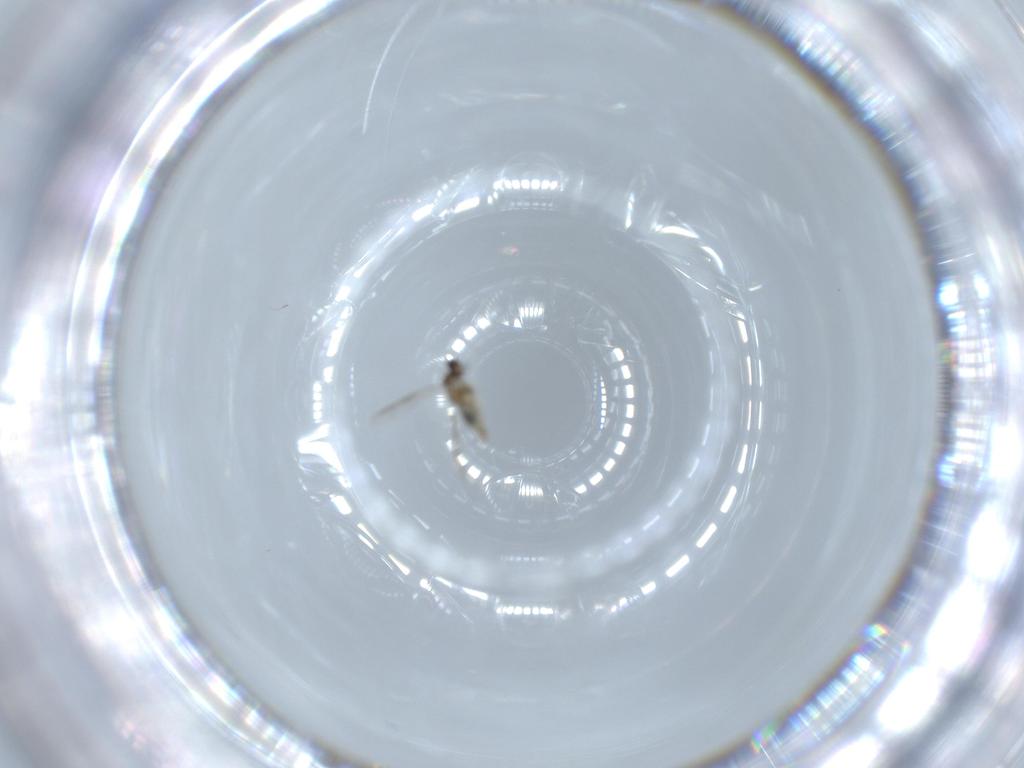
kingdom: Animalia
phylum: Arthropoda
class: Insecta
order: Diptera
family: Cecidomyiidae
